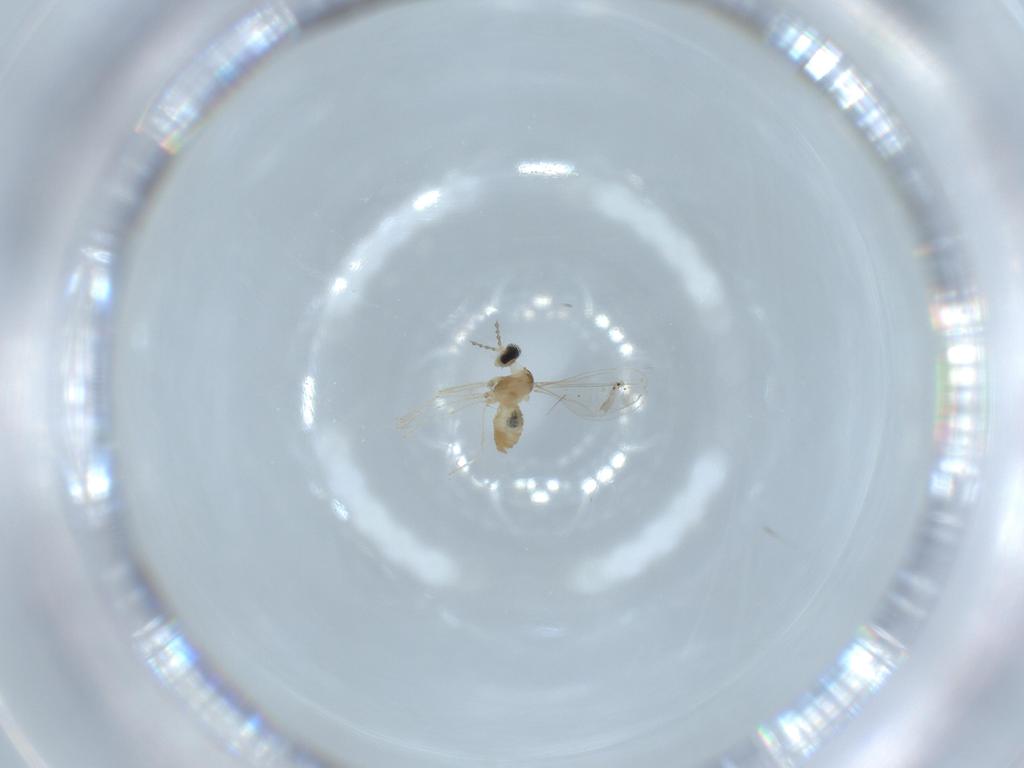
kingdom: Animalia
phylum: Arthropoda
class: Insecta
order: Diptera
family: Cecidomyiidae
